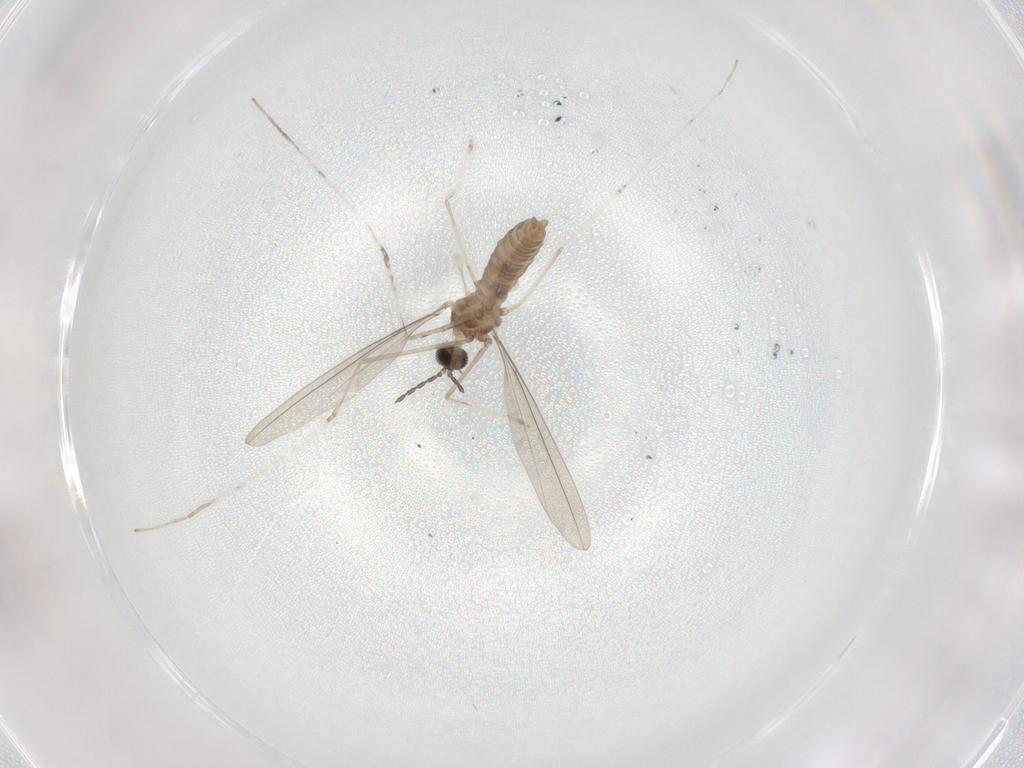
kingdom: Animalia
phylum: Arthropoda
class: Insecta
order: Diptera
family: Cecidomyiidae
